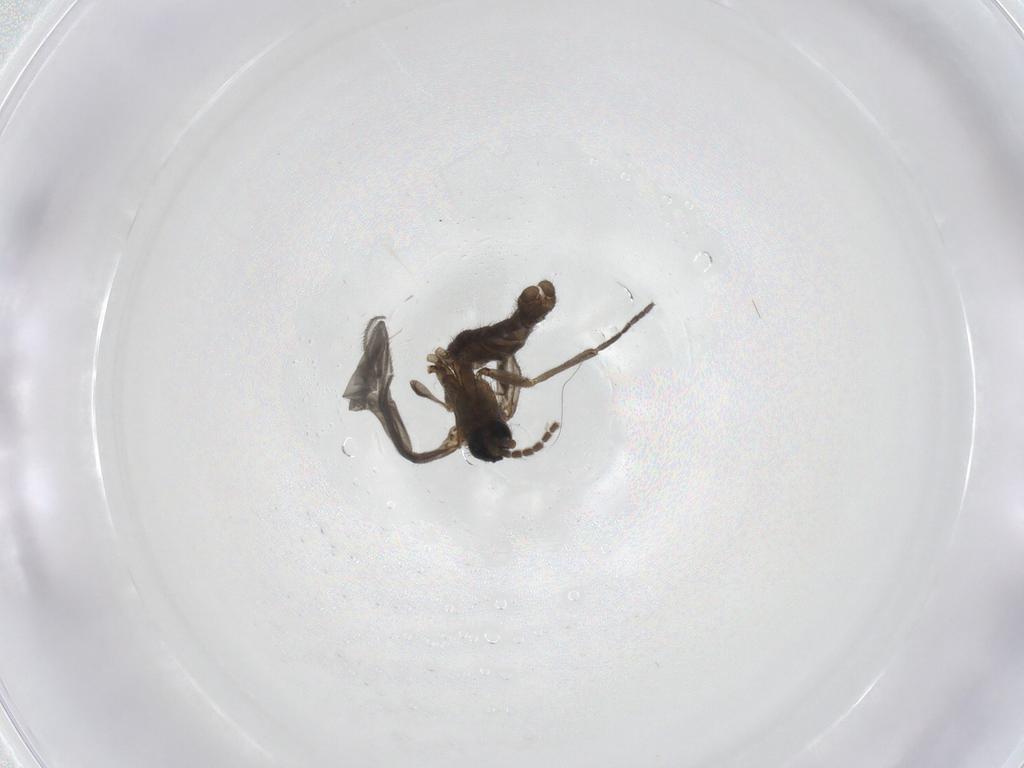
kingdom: Animalia
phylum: Arthropoda
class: Insecta
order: Diptera
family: Sciaridae
